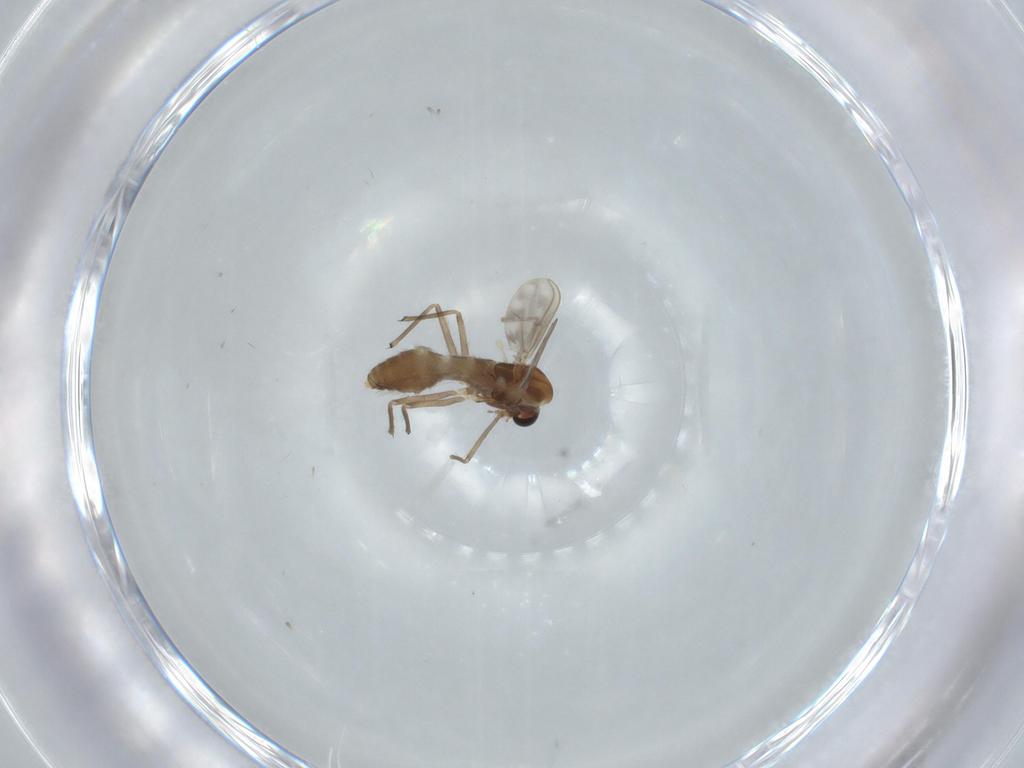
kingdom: Animalia
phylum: Arthropoda
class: Insecta
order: Diptera
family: Chironomidae
